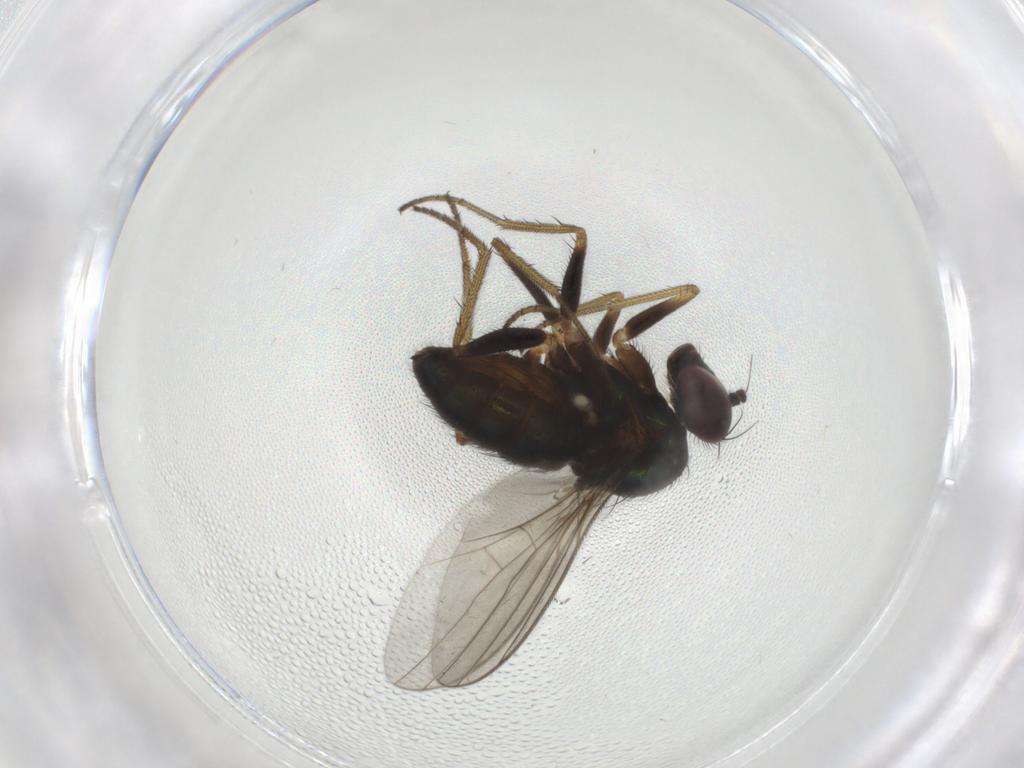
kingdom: Animalia
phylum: Arthropoda
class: Insecta
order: Diptera
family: Dolichopodidae
